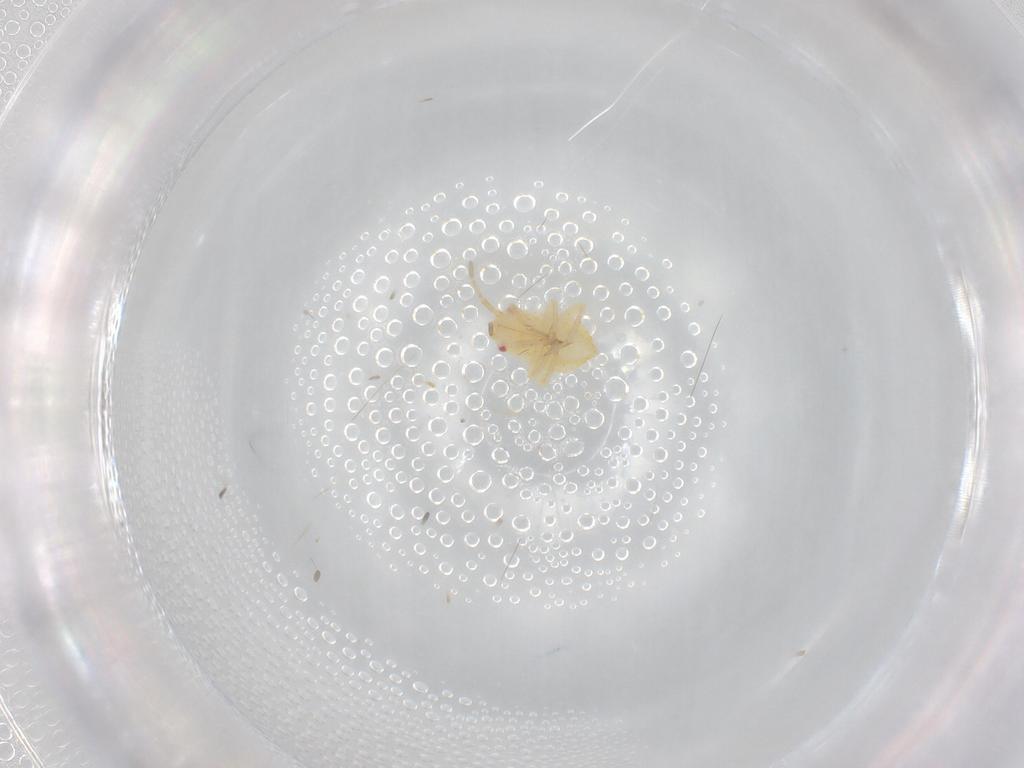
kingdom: Animalia
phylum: Arthropoda
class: Insecta
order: Hemiptera
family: Miridae
